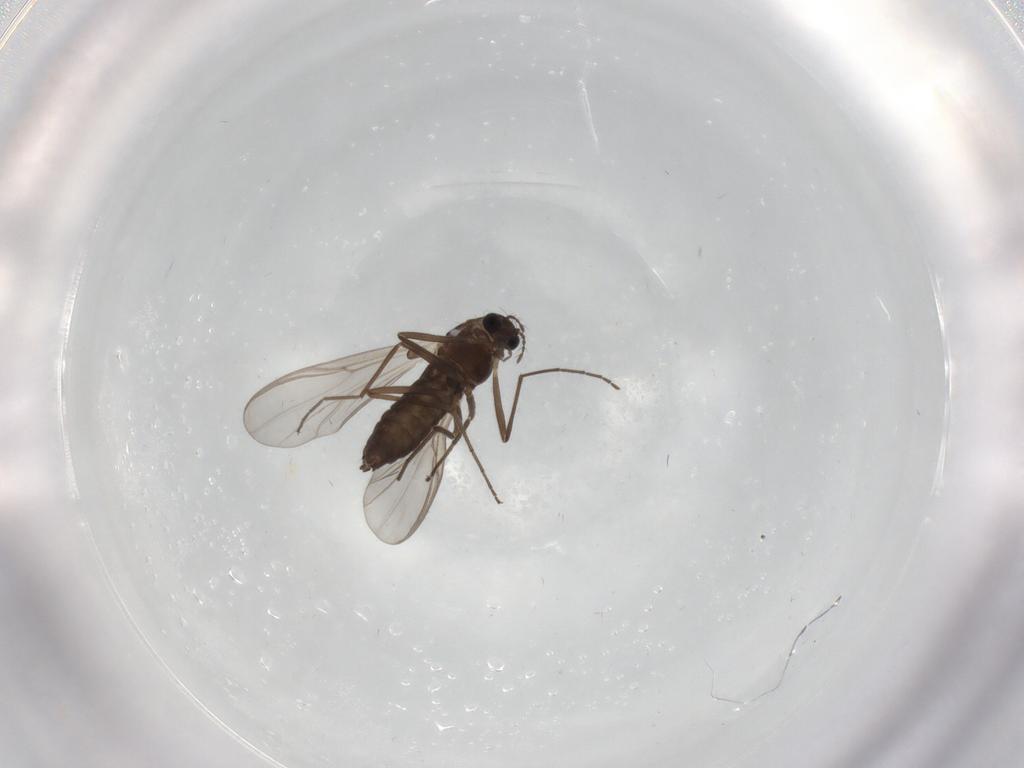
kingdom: Animalia
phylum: Arthropoda
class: Insecta
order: Diptera
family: Chironomidae
